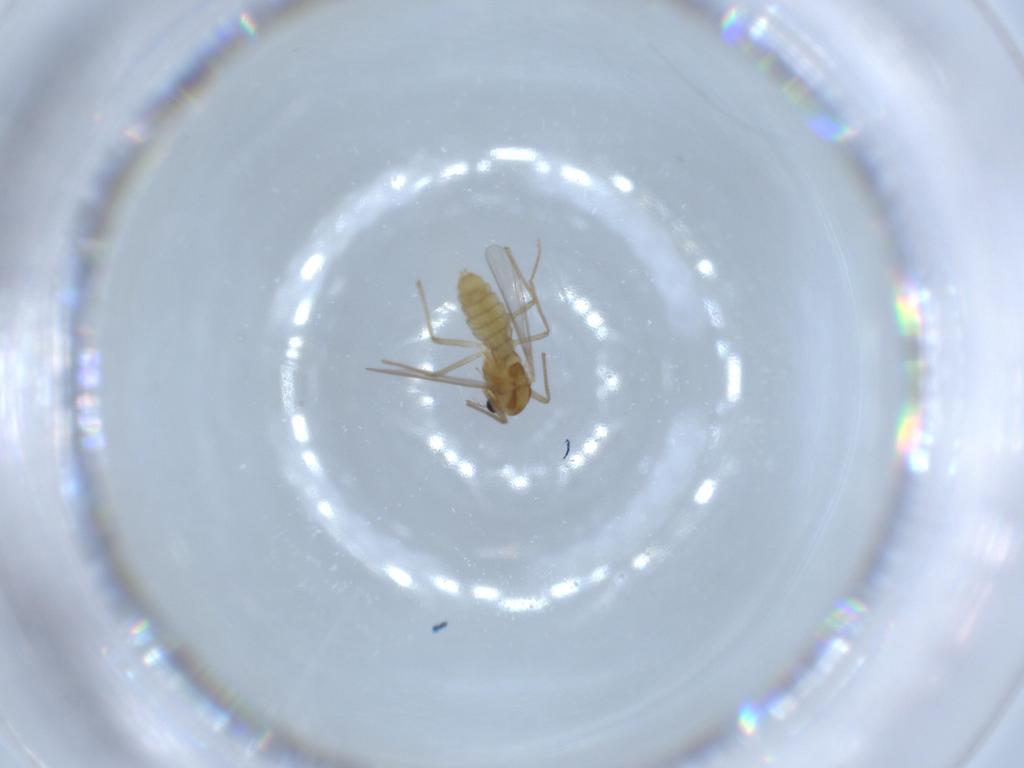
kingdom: Animalia
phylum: Arthropoda
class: Insecta
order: Diptera
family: Chironomidae
